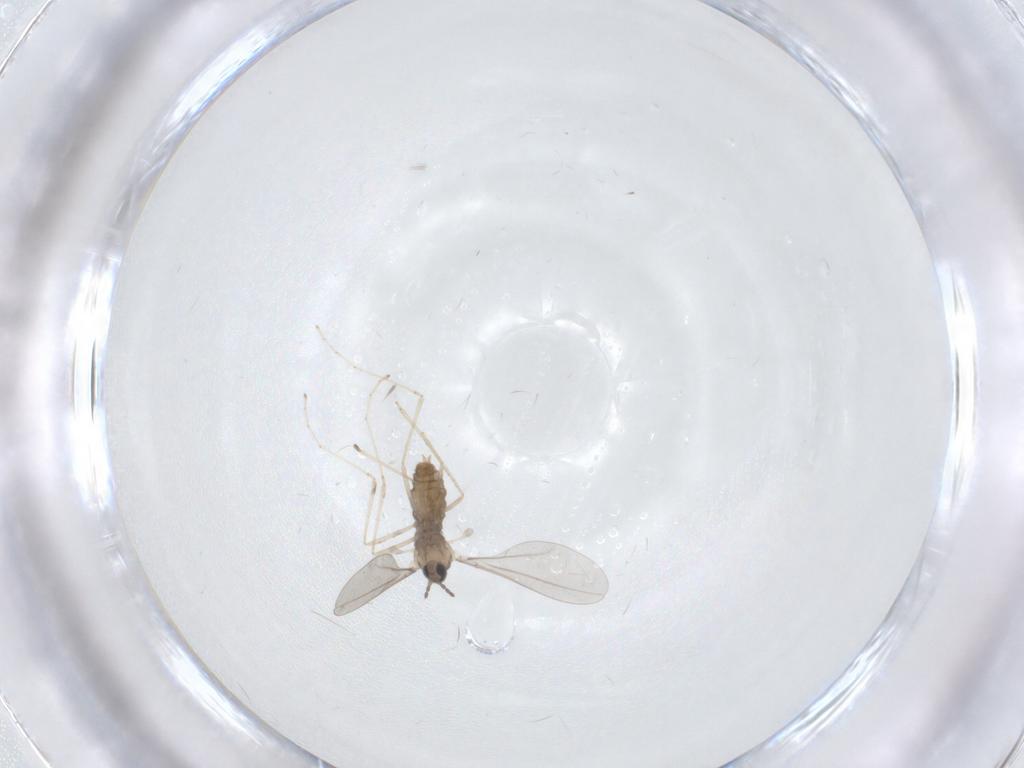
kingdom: Animalia
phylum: Arthropoda
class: Insecta
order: Diptera
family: Cecidomyiidae
